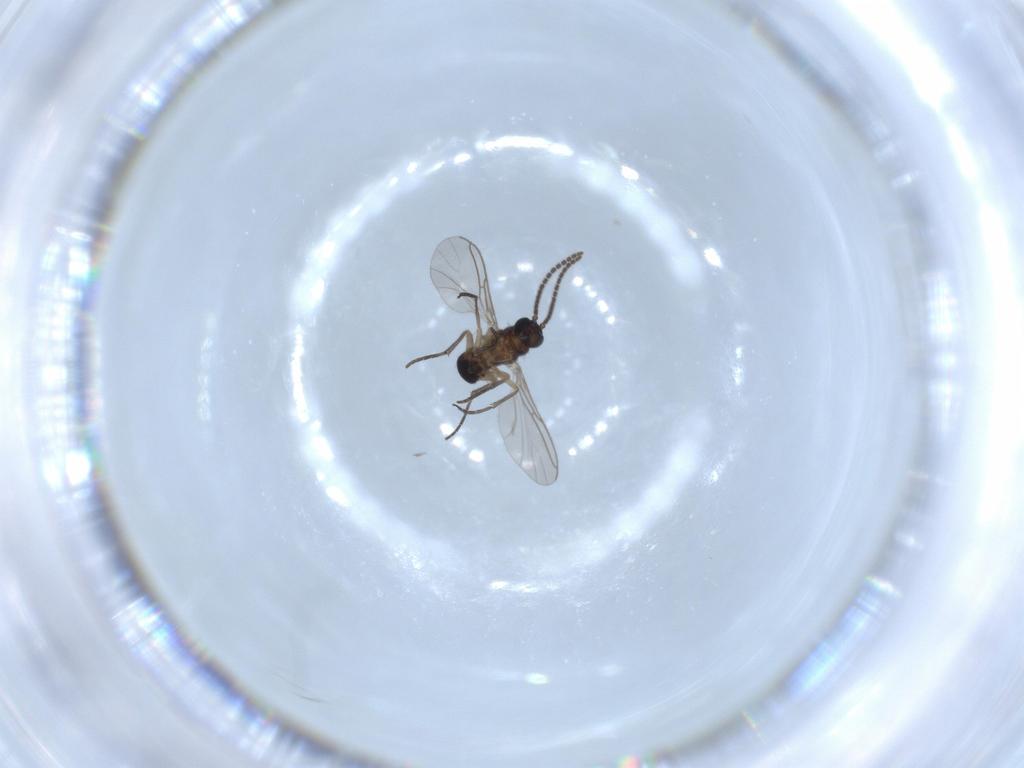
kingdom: Animalia
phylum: Arthropoda
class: Insecta
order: Diptera
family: Sciaridae
